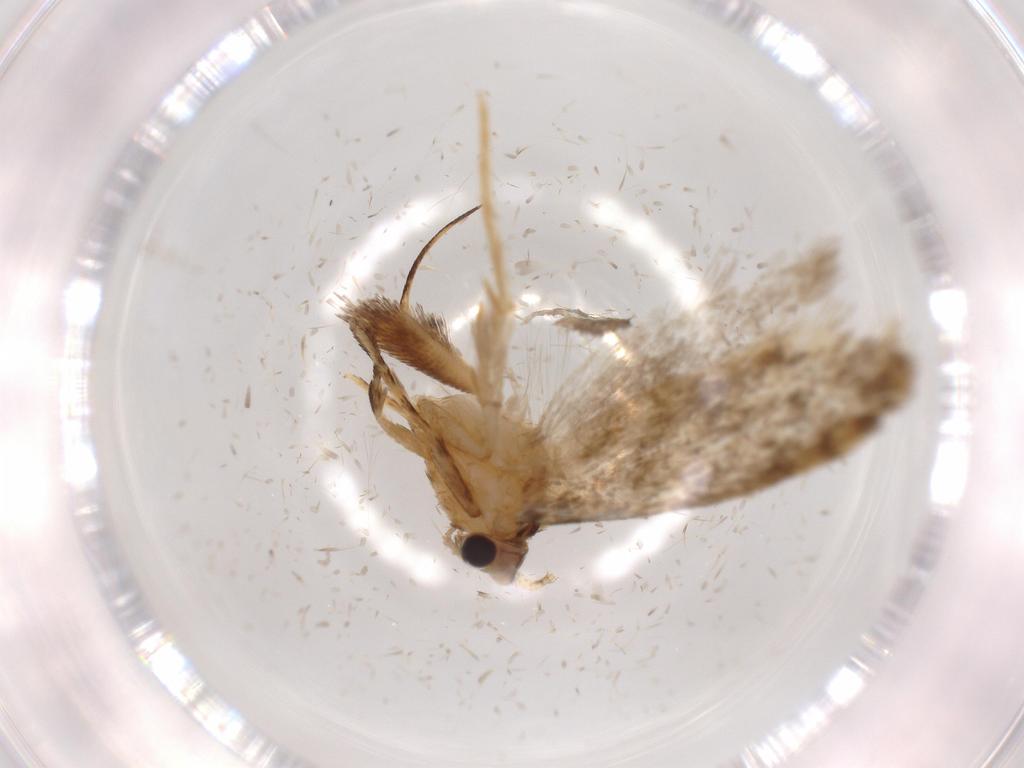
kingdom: Animalia
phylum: Arthropoda
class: Insecta
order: Lepidoptera
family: Tineidae
